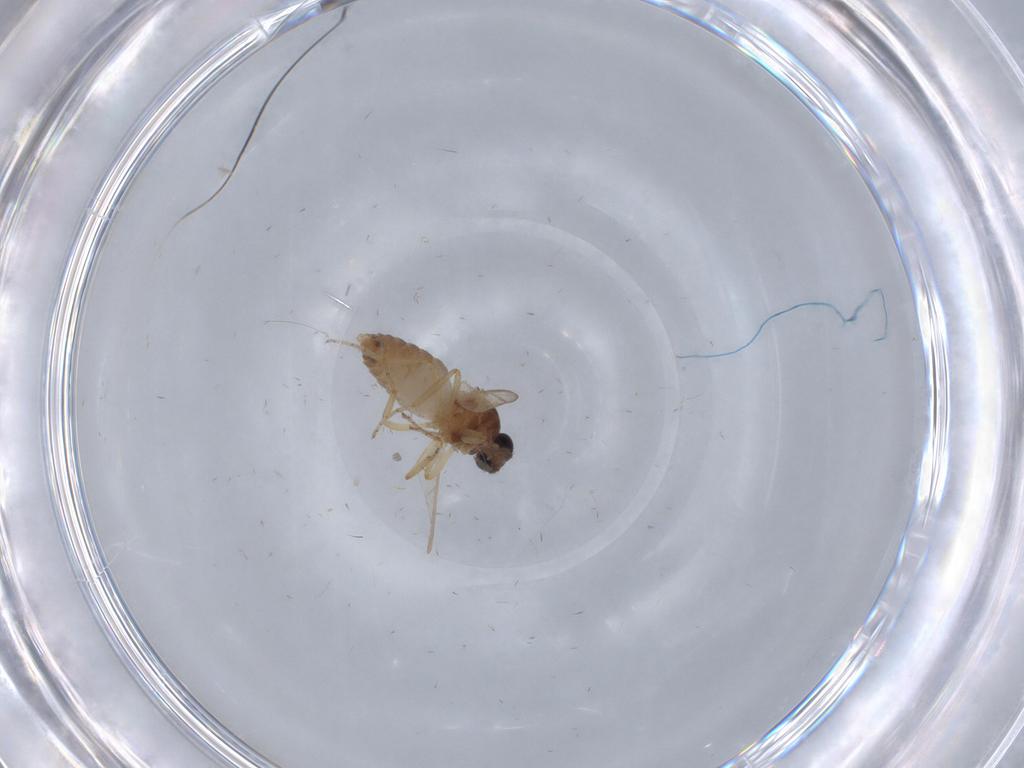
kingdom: Animalia
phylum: Arthropoda
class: Insecta
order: Diptera
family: Ceratopogonidae
